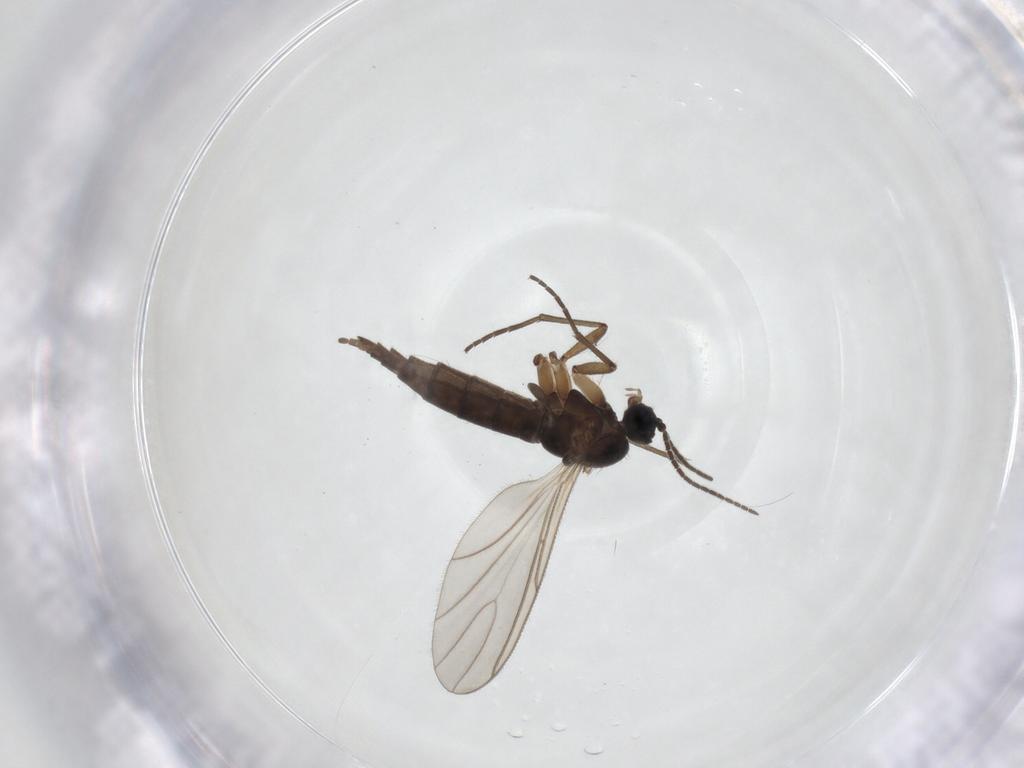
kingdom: Animalia
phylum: Arthropoda
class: Insecta
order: Diptera
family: Sciaridae
